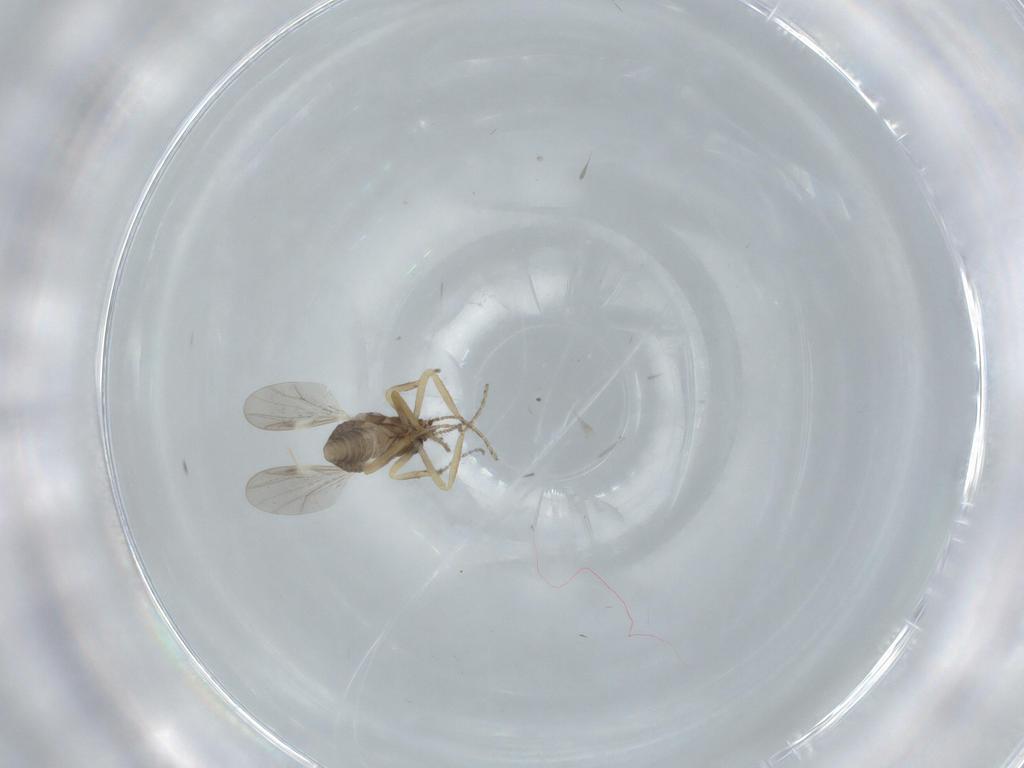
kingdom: Animalia
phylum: Arthropoda
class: Insecta
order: Diptera
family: Ceratopogonidae
